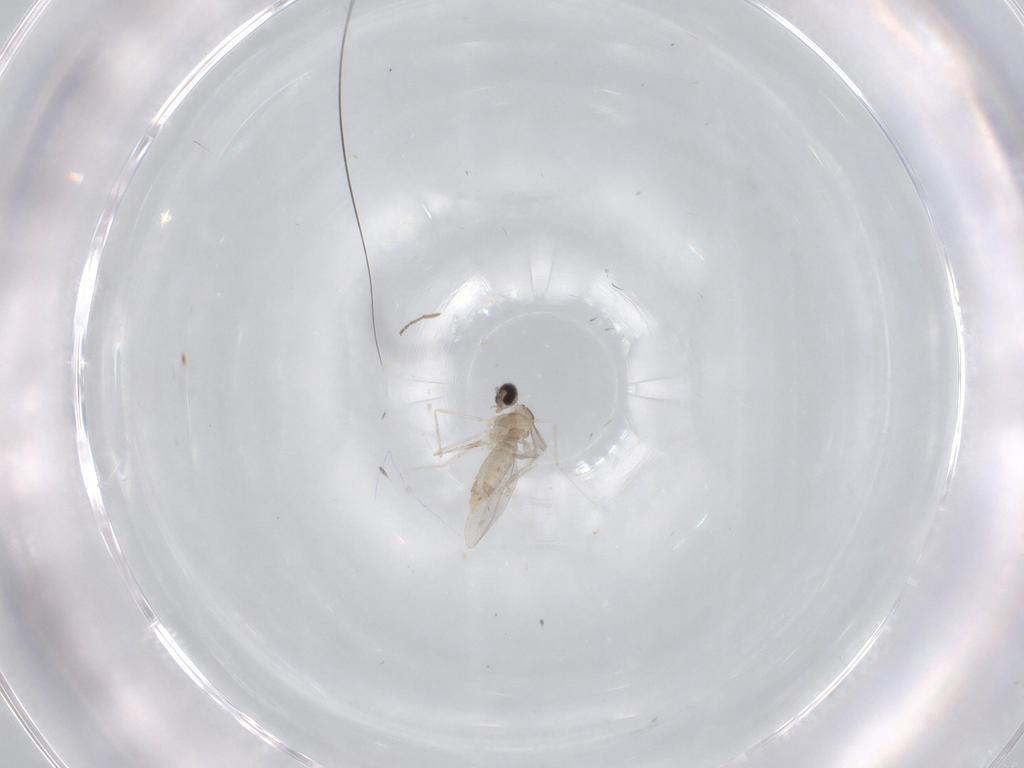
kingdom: Animalia
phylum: Arthropoda
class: Insecta
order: Diptera
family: Cecidomyiidae
